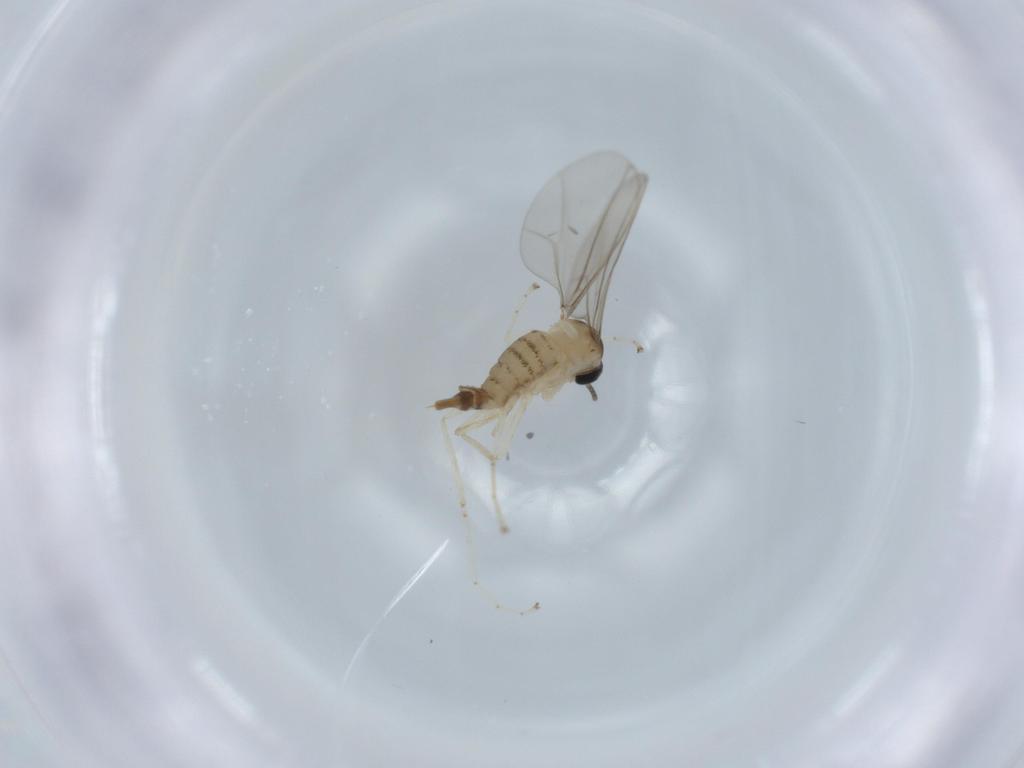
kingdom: Animalia
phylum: Arthropoda
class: Insecta
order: Diptera
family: Cecidomyiidae
